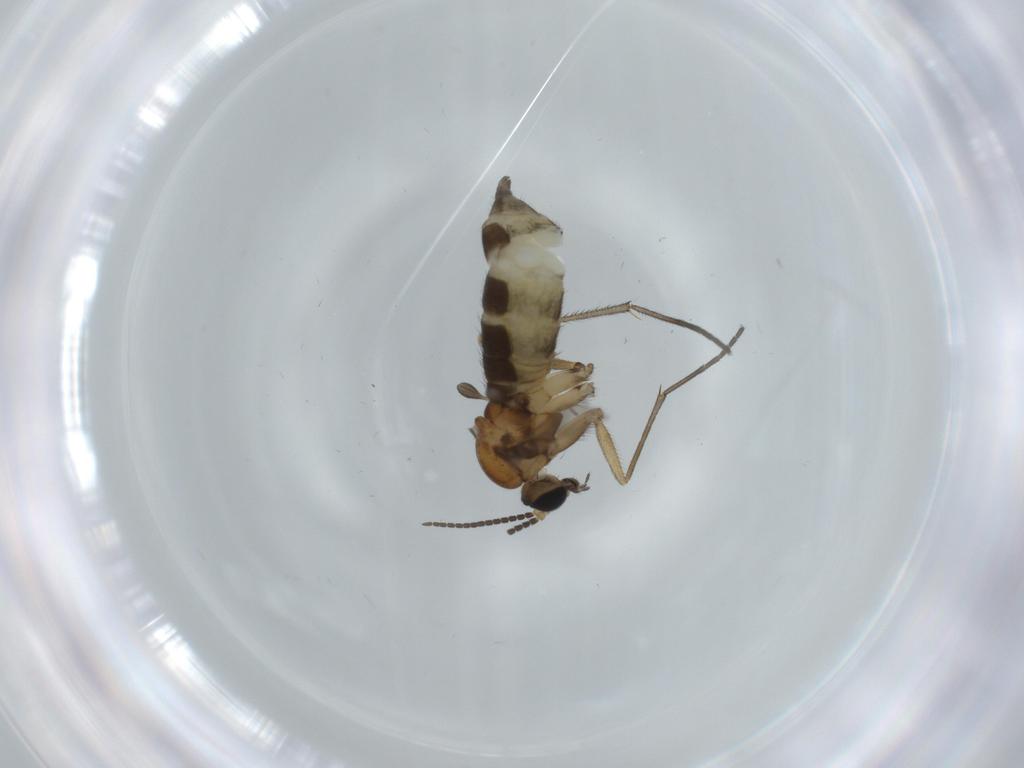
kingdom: Animalia
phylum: Arthropoda
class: Insecta
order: Diptera
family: Sciaridae
